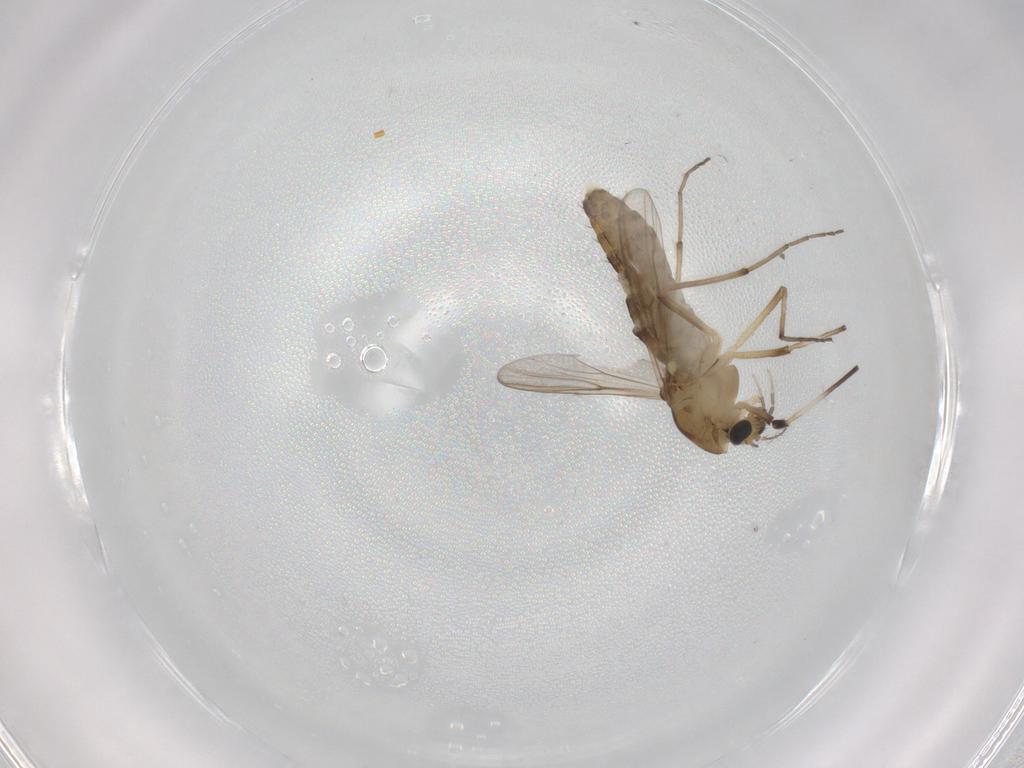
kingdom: Animalia
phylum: Arthropoda
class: Insecta
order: Diptera
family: Chironomidae
